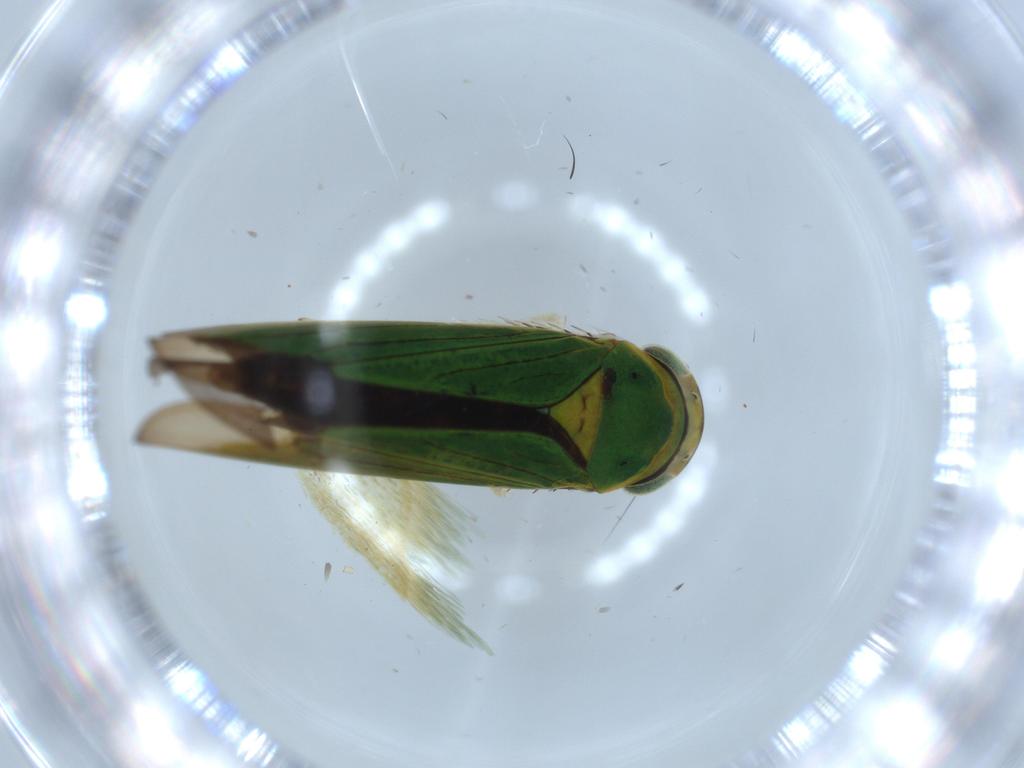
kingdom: Animalia
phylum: Arthropoda
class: Insecta
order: Hemiptera
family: Cicadellidae
